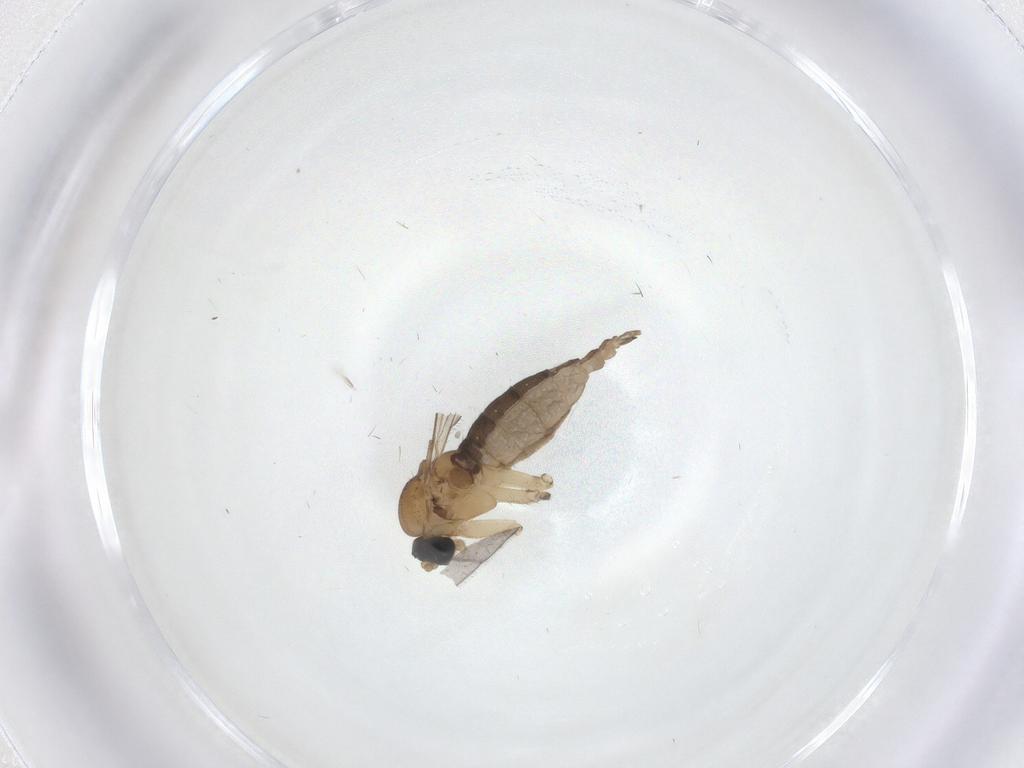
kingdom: Animalia
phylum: Arthropoda
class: Insecta
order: Diptera
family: Sciaridae
